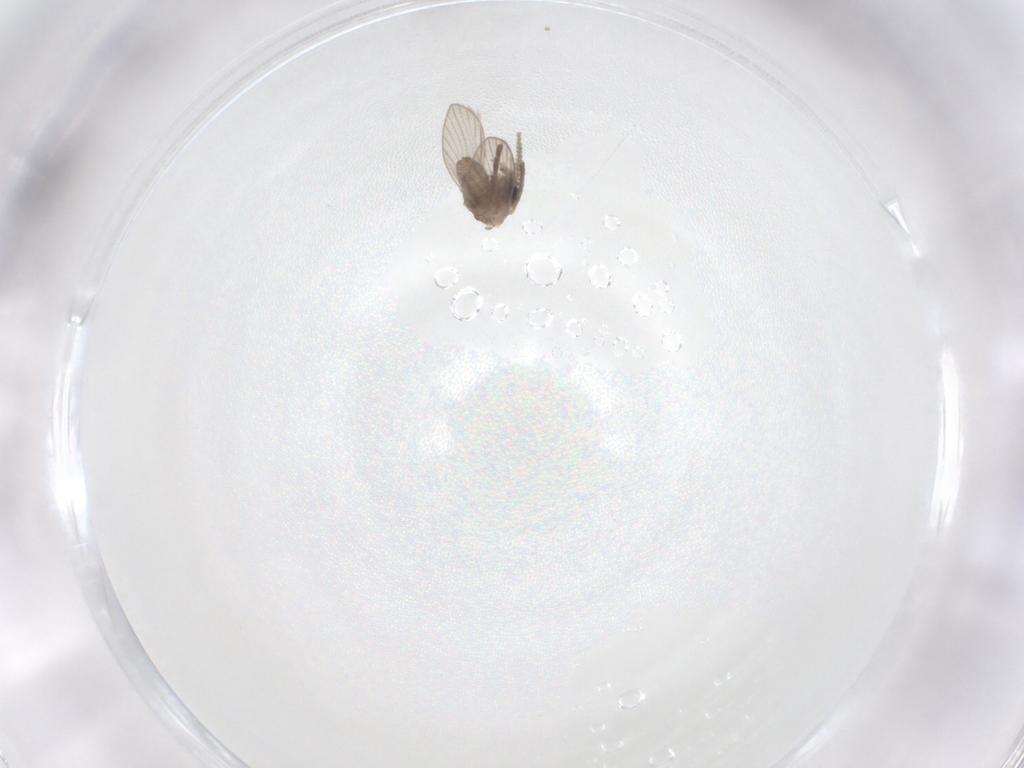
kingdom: Animalia
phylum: Arthropoda
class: Insecta
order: Diptera
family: Psychodidae
